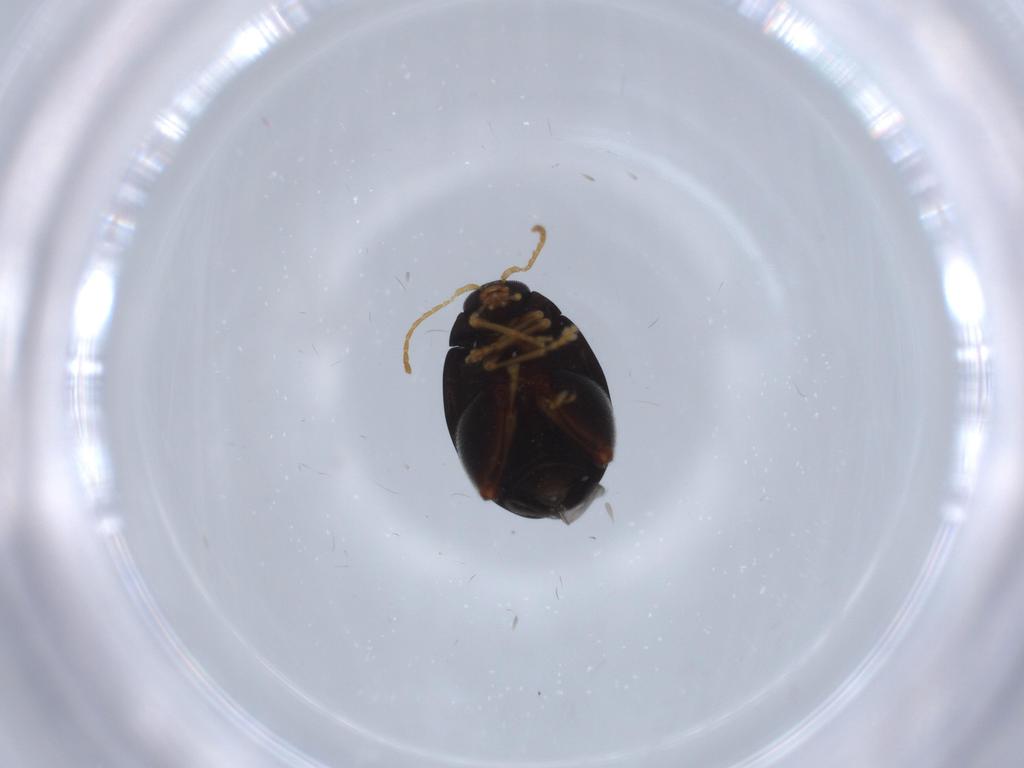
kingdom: Animalia
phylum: Arthropoda
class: Insecta
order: Coleoptera
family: Chrysomelidae
